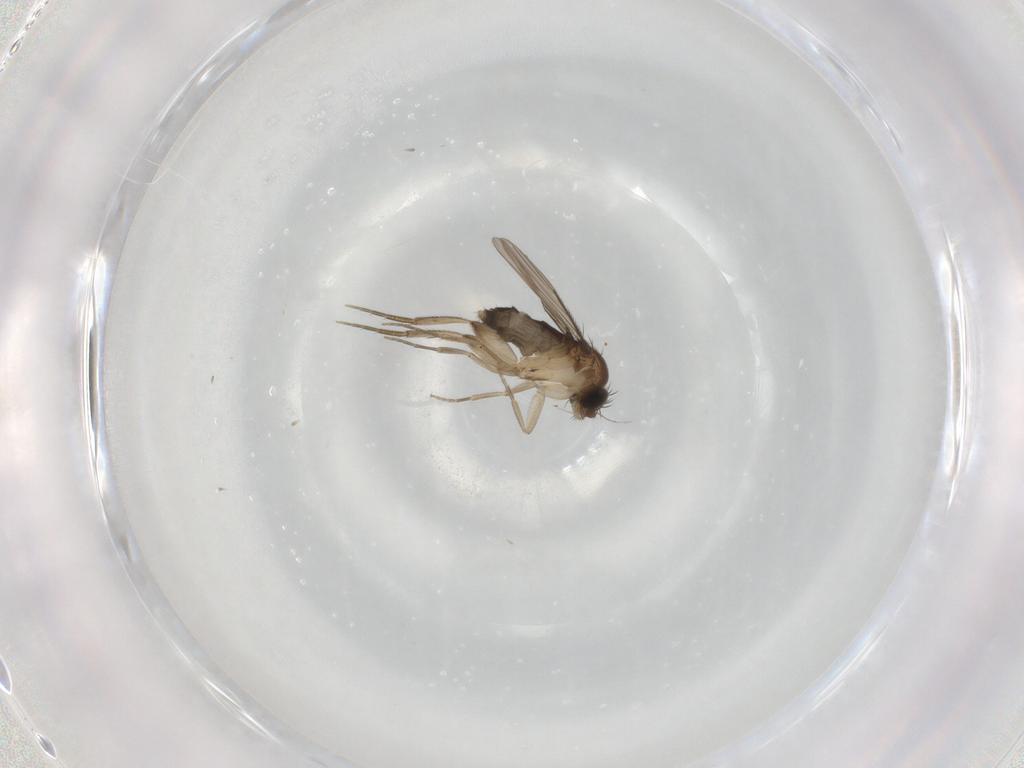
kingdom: Animalia
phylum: Arthropoda
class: Insecta
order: Diptera
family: Phoridae
